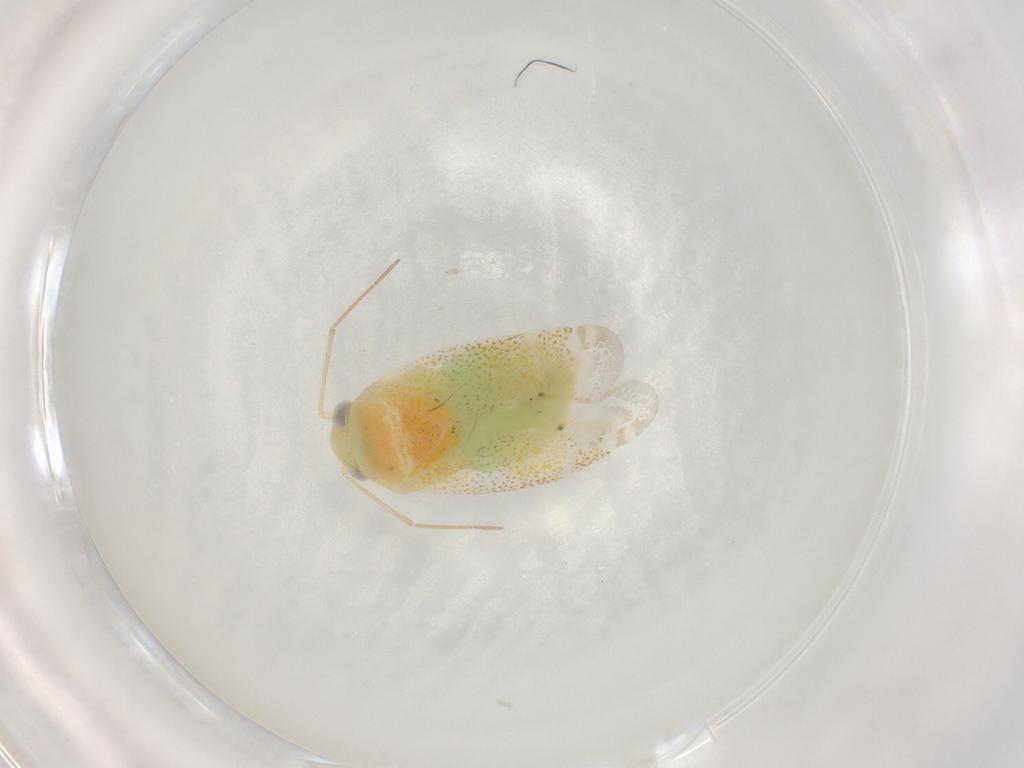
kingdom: Animalia
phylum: Arthropoda
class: Insecta
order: Hemiptera
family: Miridae
